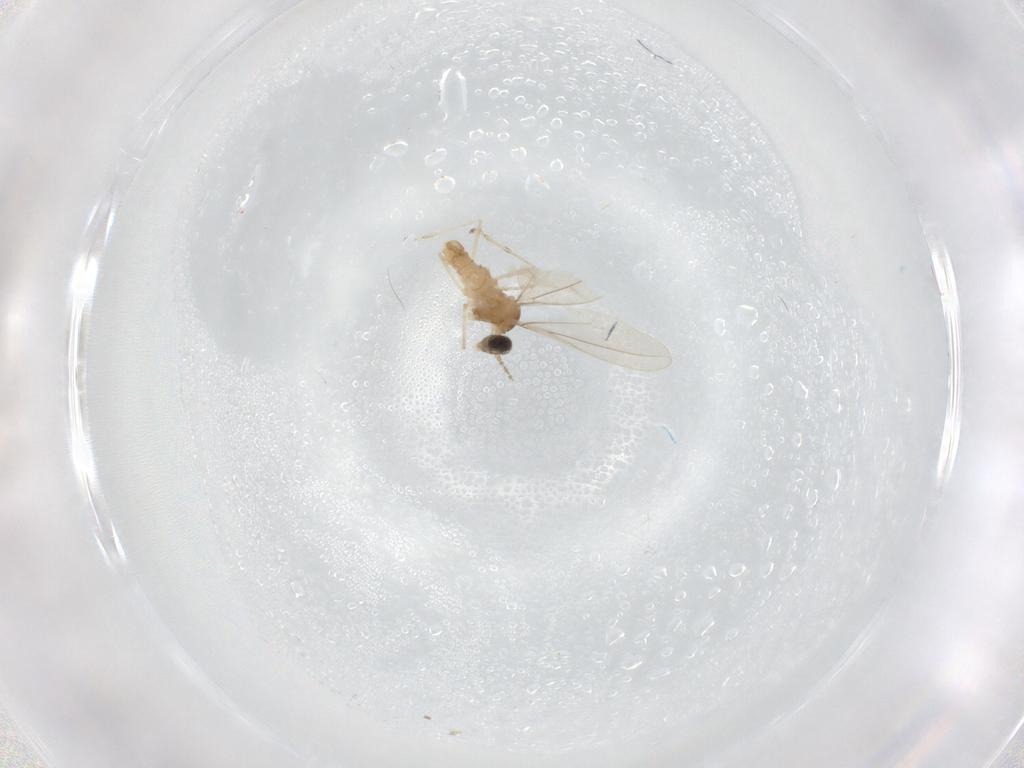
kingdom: Animalia
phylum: Arthropoda
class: Insecta
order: Diptera
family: Cecidomyiidae
